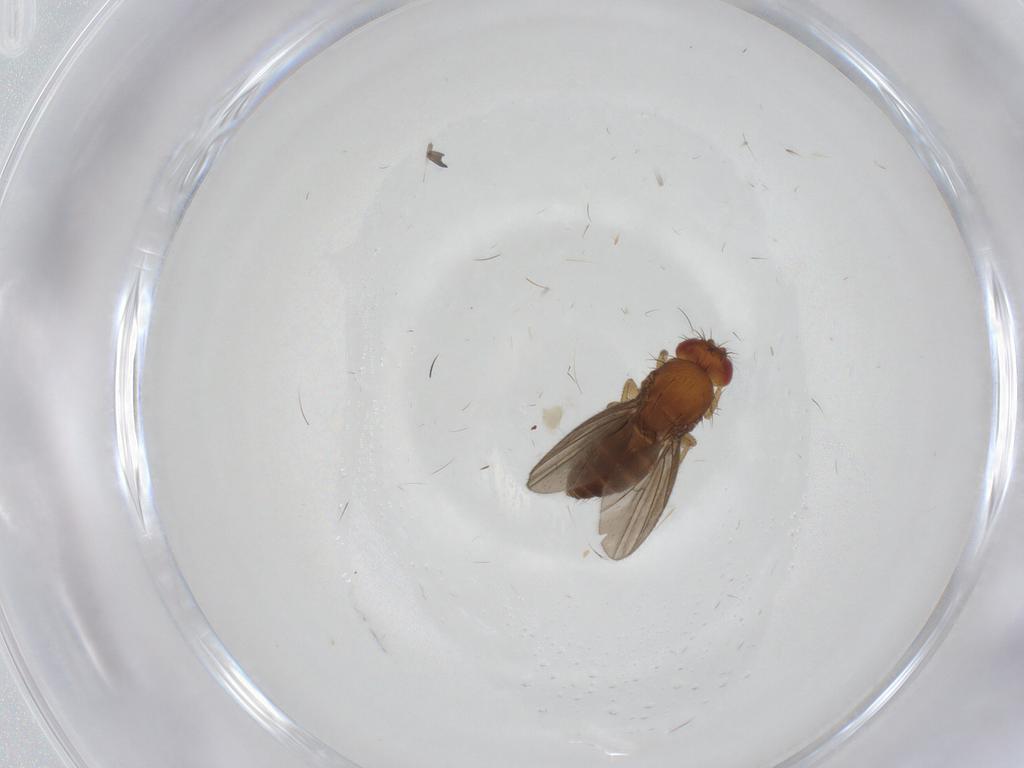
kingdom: Animalia
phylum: Arthropoda
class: Insecta
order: Diptera
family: Drosophilidae
